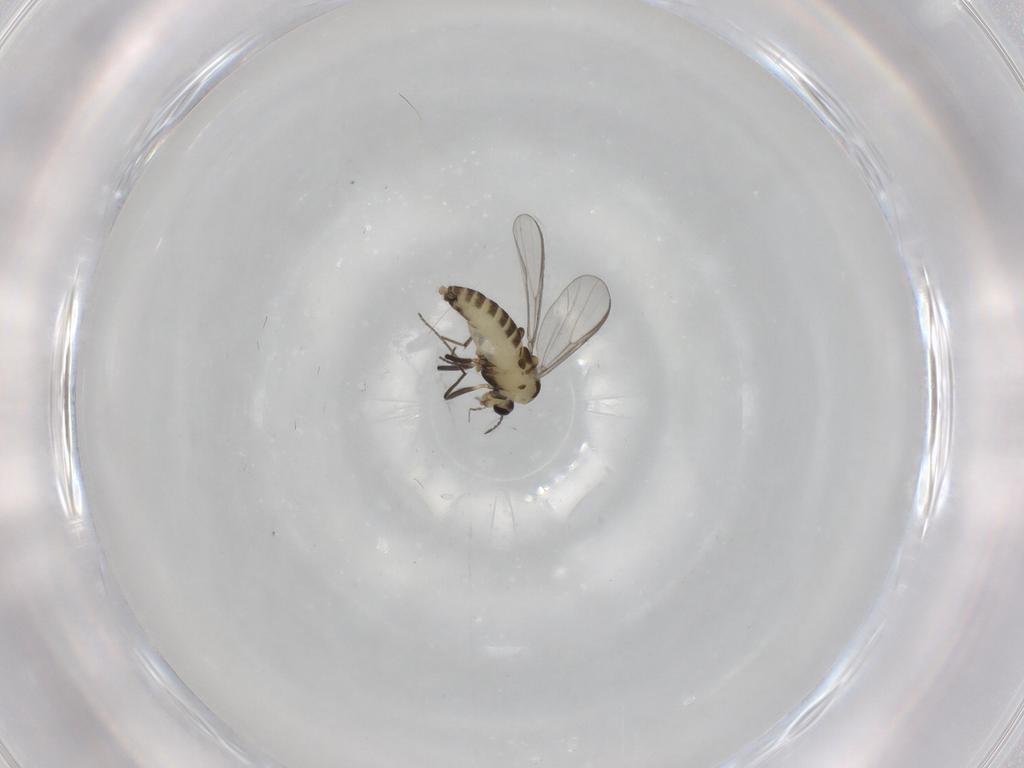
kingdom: Animalia
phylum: Arthropoda
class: Insecta
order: Diptera
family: Chironomidae
